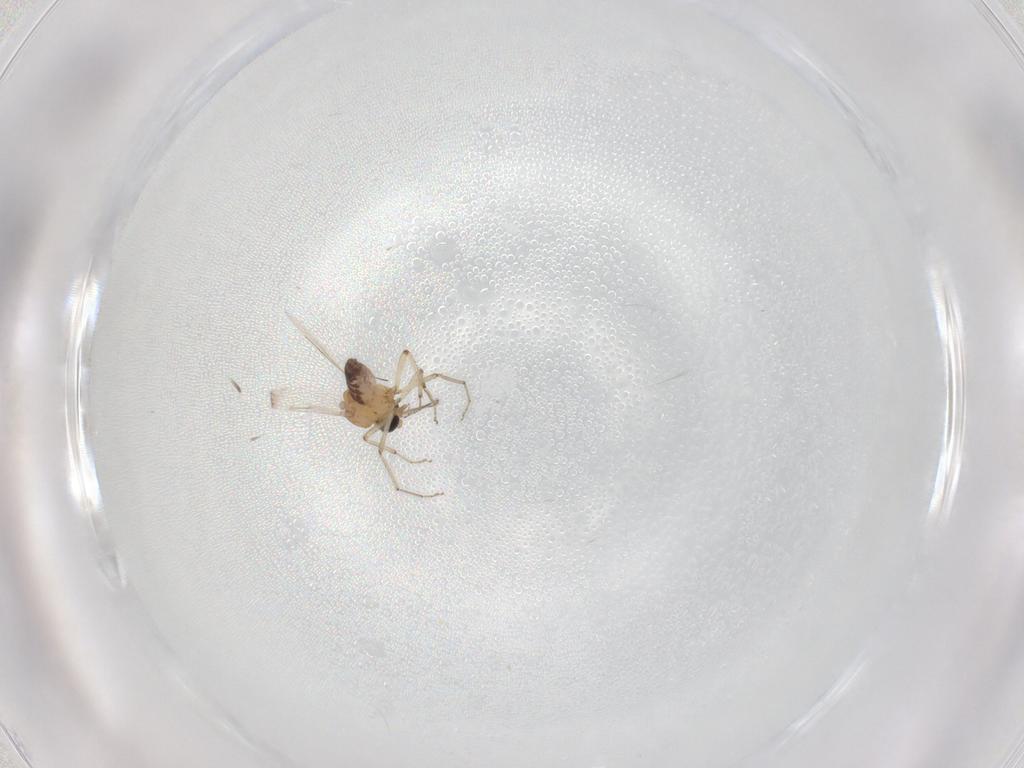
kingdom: Animalia
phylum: Arthropoda
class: Insecta
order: Diptera
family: Ceratopogonidae
